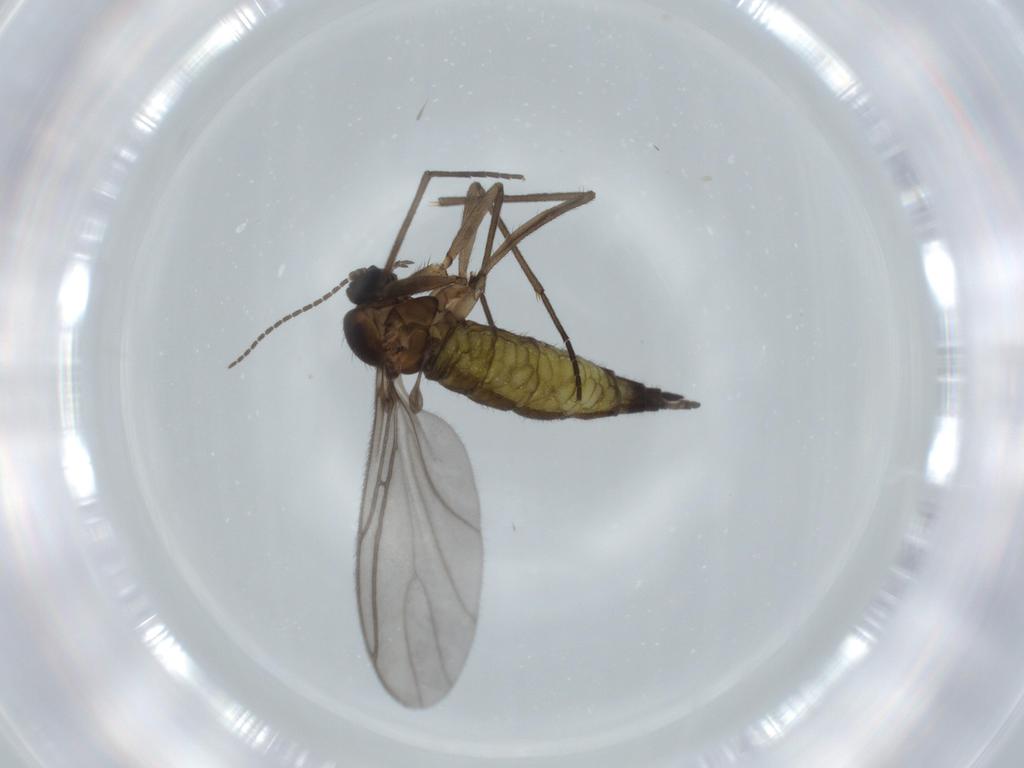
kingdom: Animalia
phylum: Arthropoda
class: Insecta
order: Diptera
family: Sciaridae
